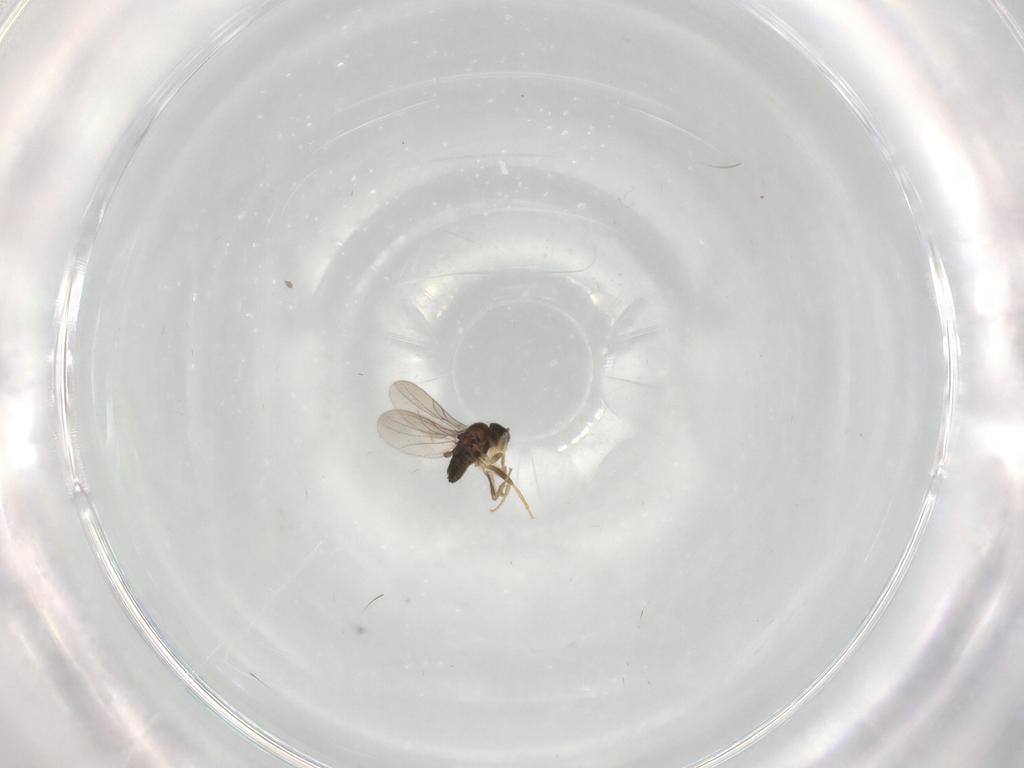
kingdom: Animalia
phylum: Arthropoda
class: Insecta
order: Diptera
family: Hybotidae
